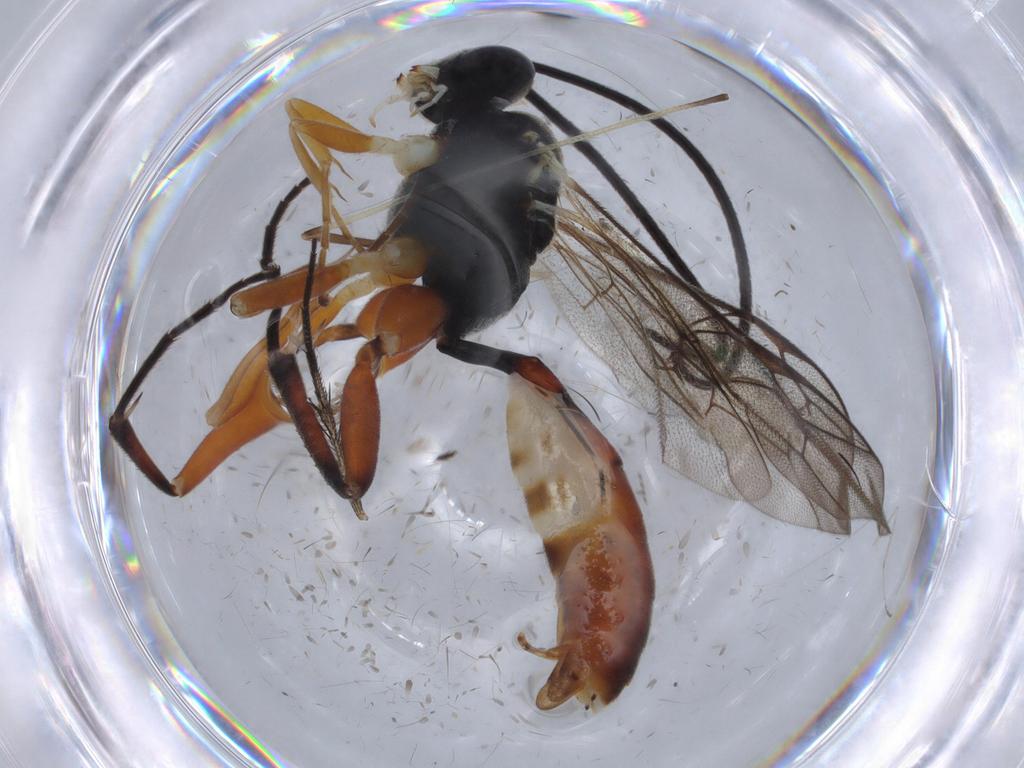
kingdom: Animalia
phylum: Arthropoda
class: Insecta
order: Hymenoptera
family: Ichneumonidae
